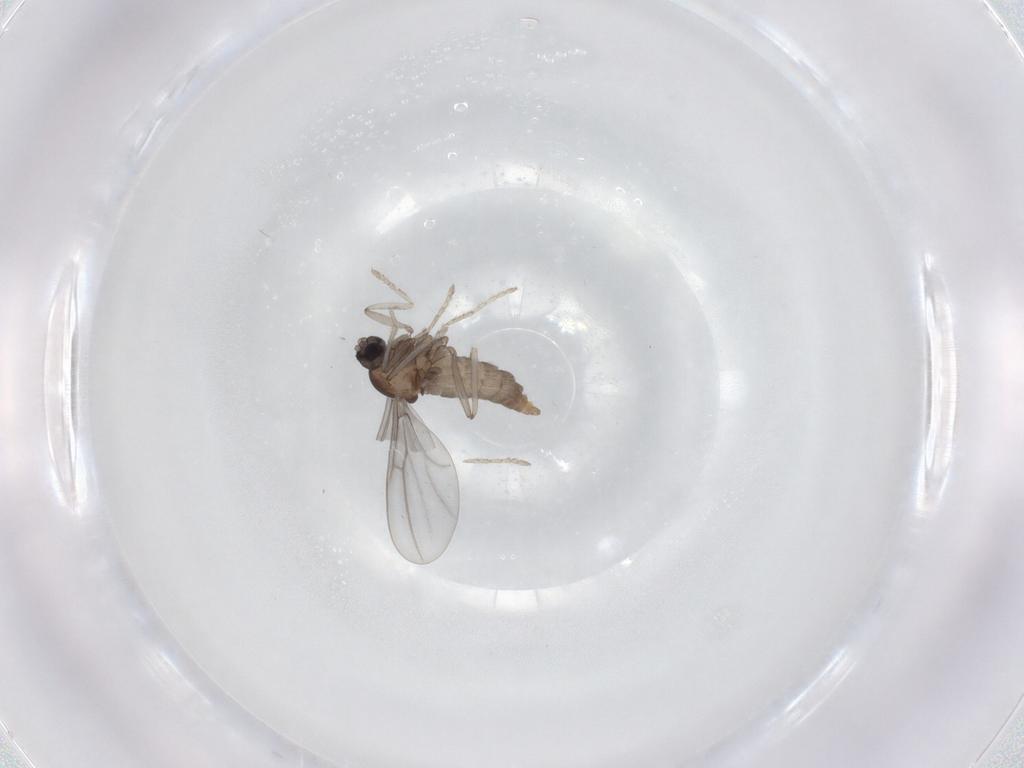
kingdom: Animalia
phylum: Arthropoda
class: Insecta
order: Diptera
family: Cecidomyiidae
